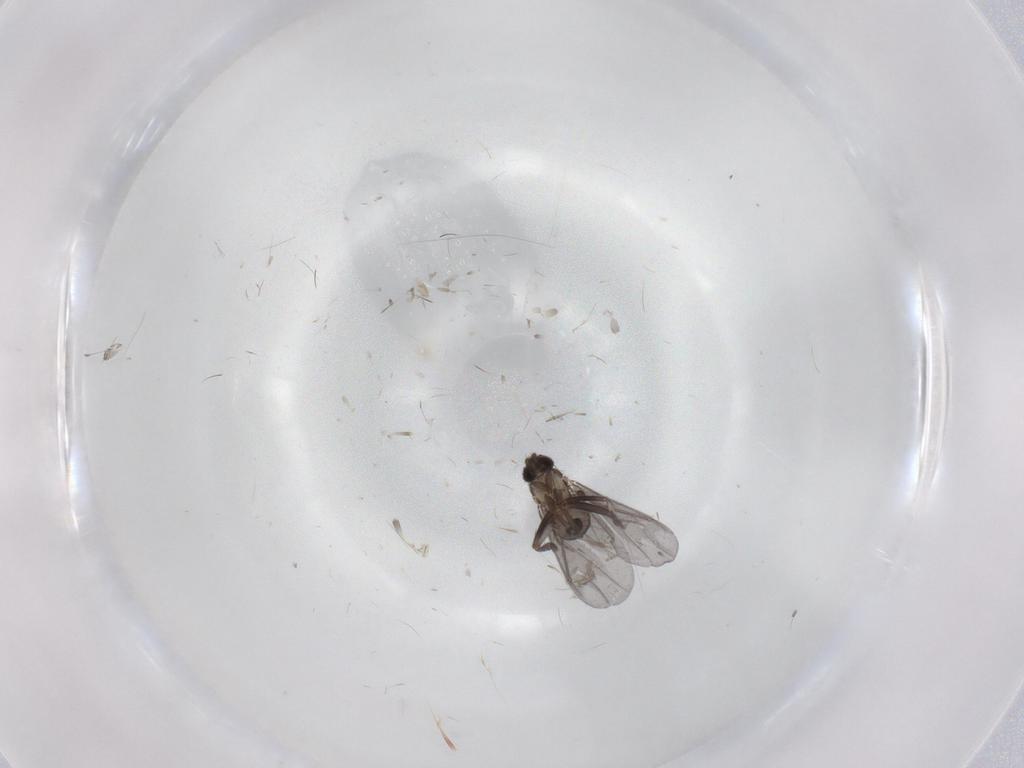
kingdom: Animalia
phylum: Arthropoda
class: Insecta
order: Diptera
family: Phoridae
